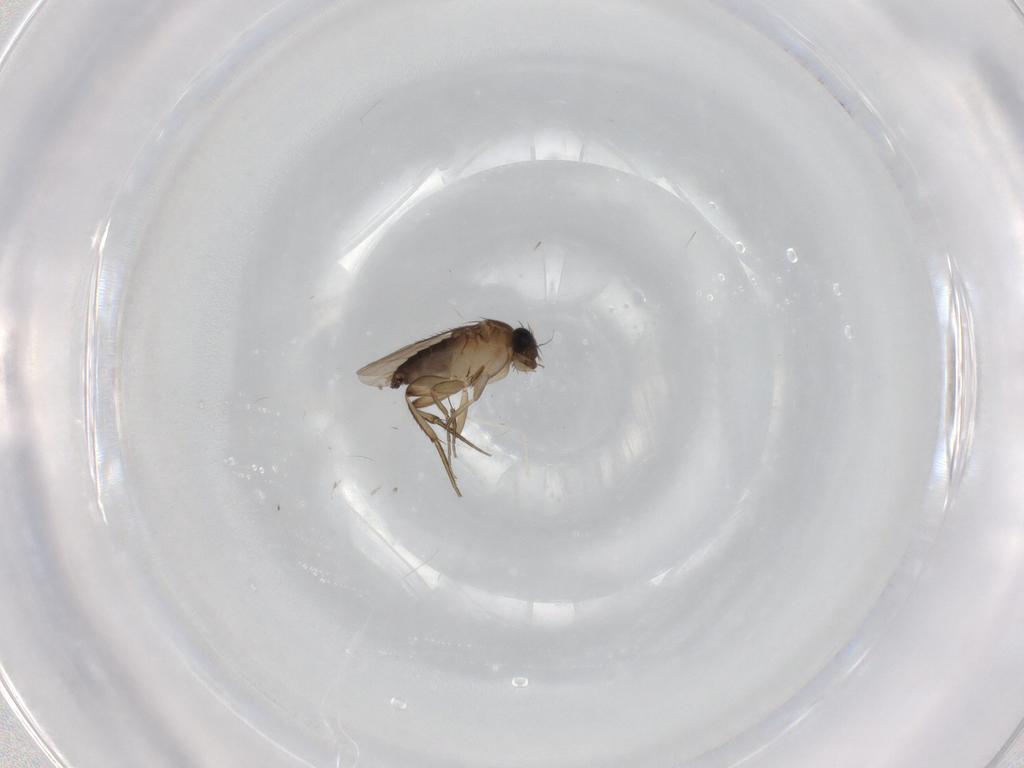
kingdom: Animalia
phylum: Arthropoda
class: Insecta
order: Diptera
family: Phoridae
